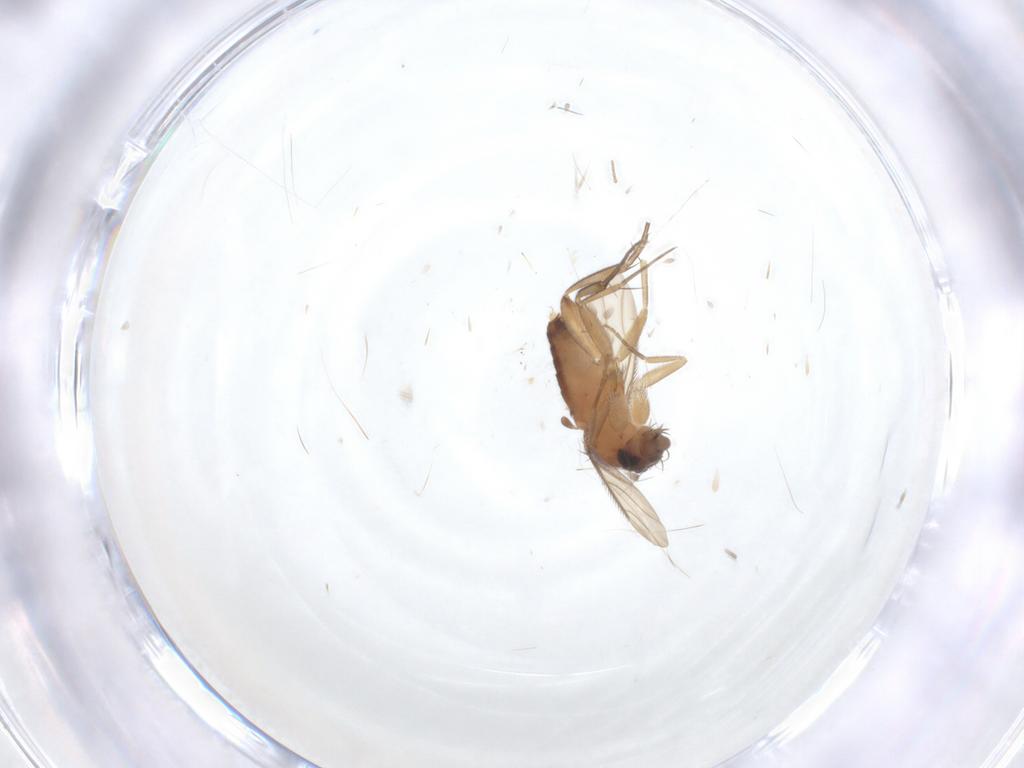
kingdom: Animalia
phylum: Arthropoda
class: Insecta
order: Diptera
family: Phoridae
